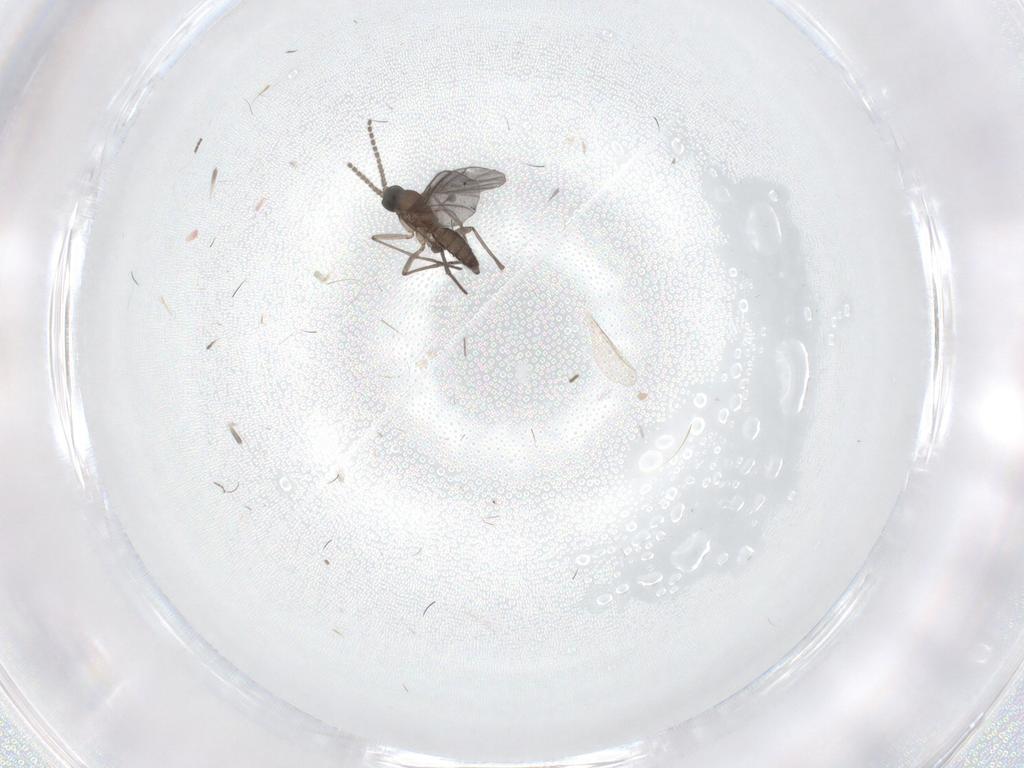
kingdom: Animalia
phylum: Arthropoda
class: Insecta
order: Diptera
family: Sciaridae
